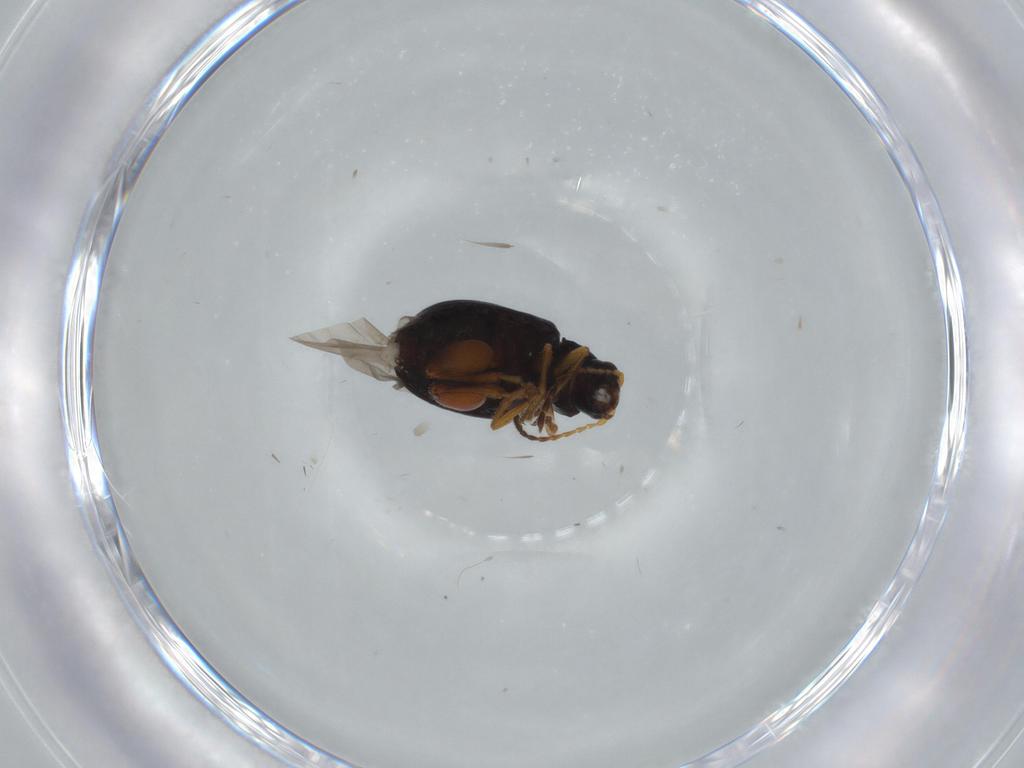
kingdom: Animalia
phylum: Arthropoda
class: Insecta
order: Coleoptera
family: Chrysomelidae
